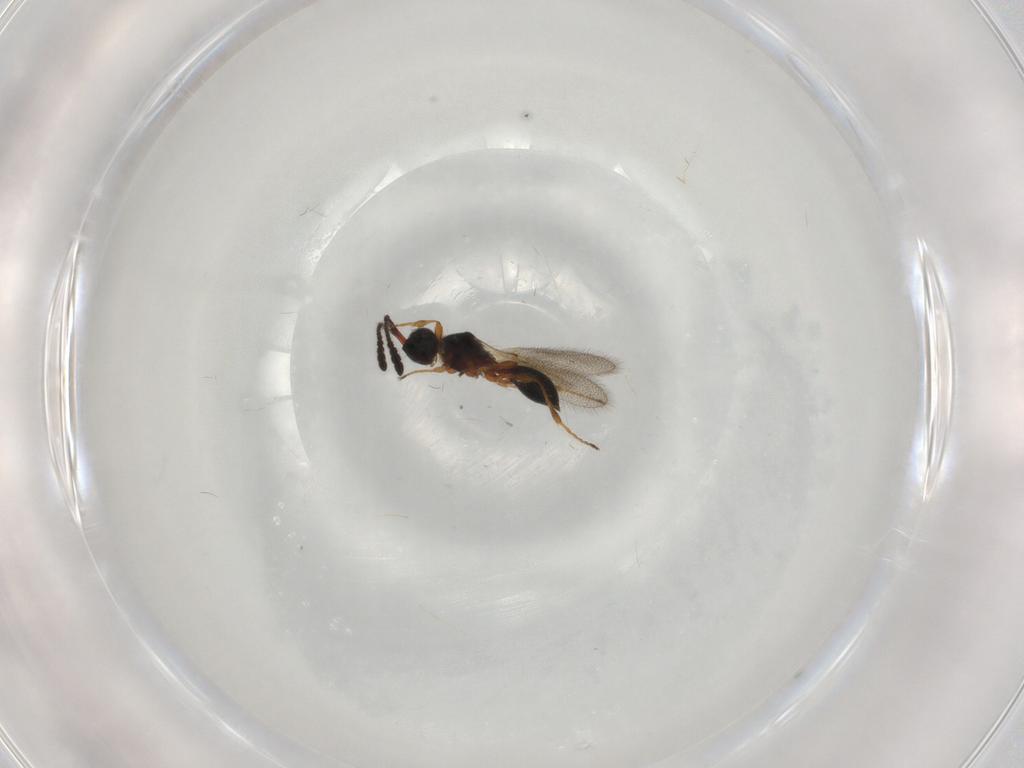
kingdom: Animalia
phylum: Arthropoda
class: Insecta
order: Hymenoptera
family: Diapriidae
